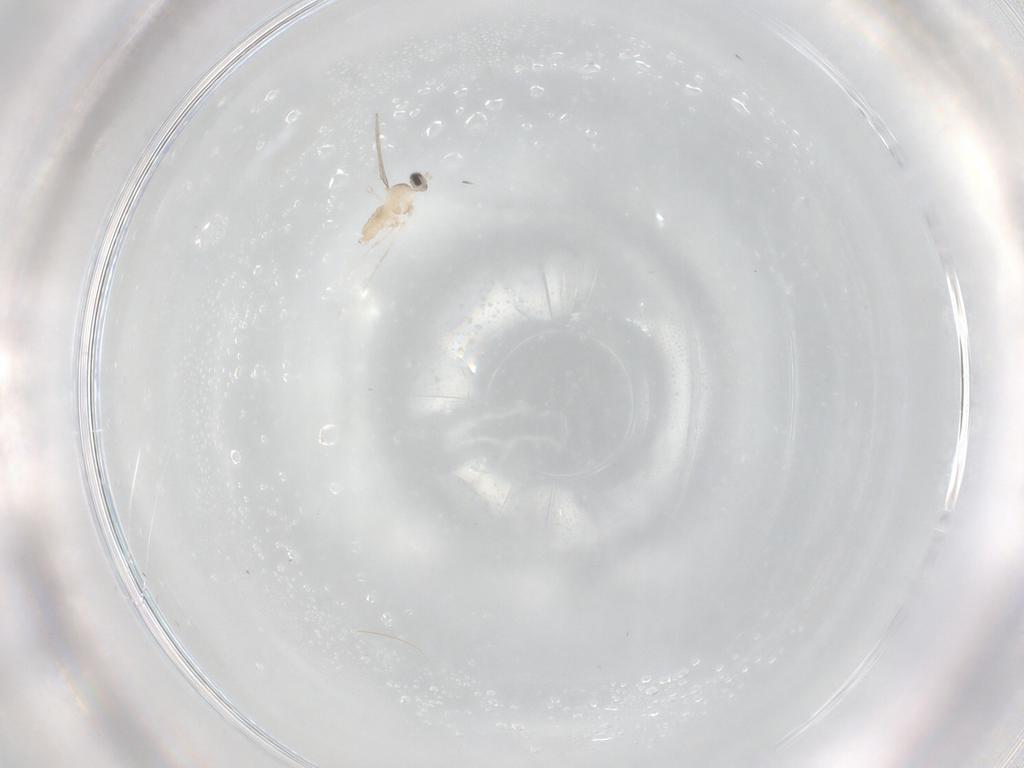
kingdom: Animalia
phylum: Arthropoda
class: Insecta
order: Diptera
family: Cecidomyiidae
